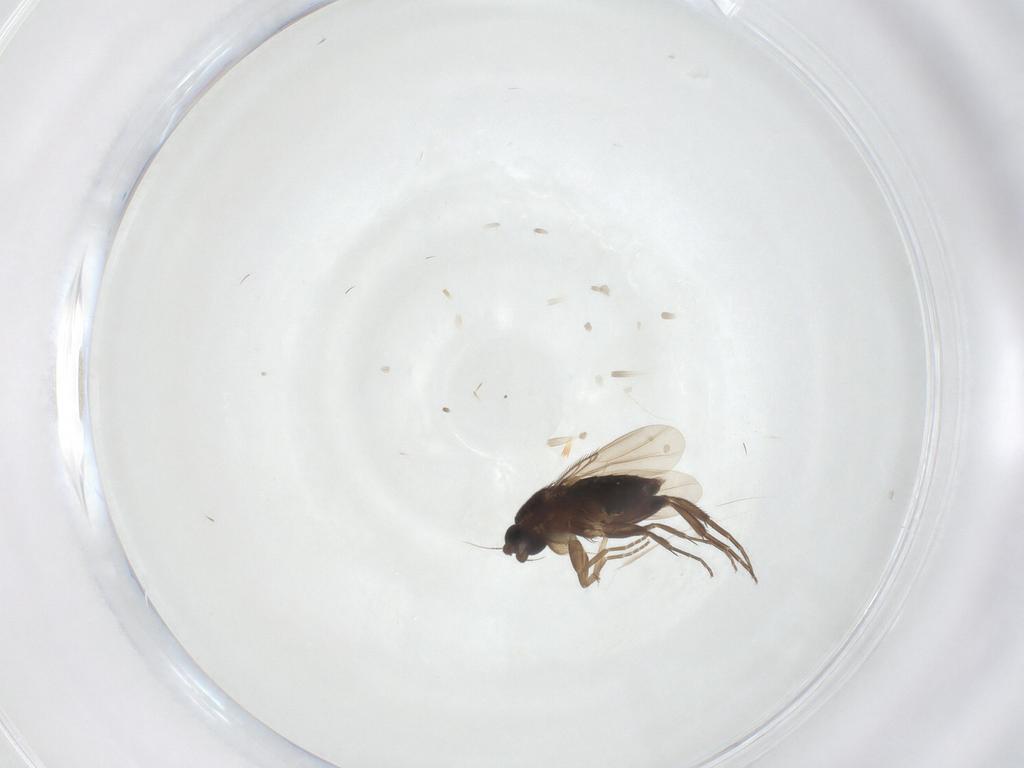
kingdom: Animalia
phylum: Arthropoda
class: Insecta
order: Diptera
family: Phoridae
